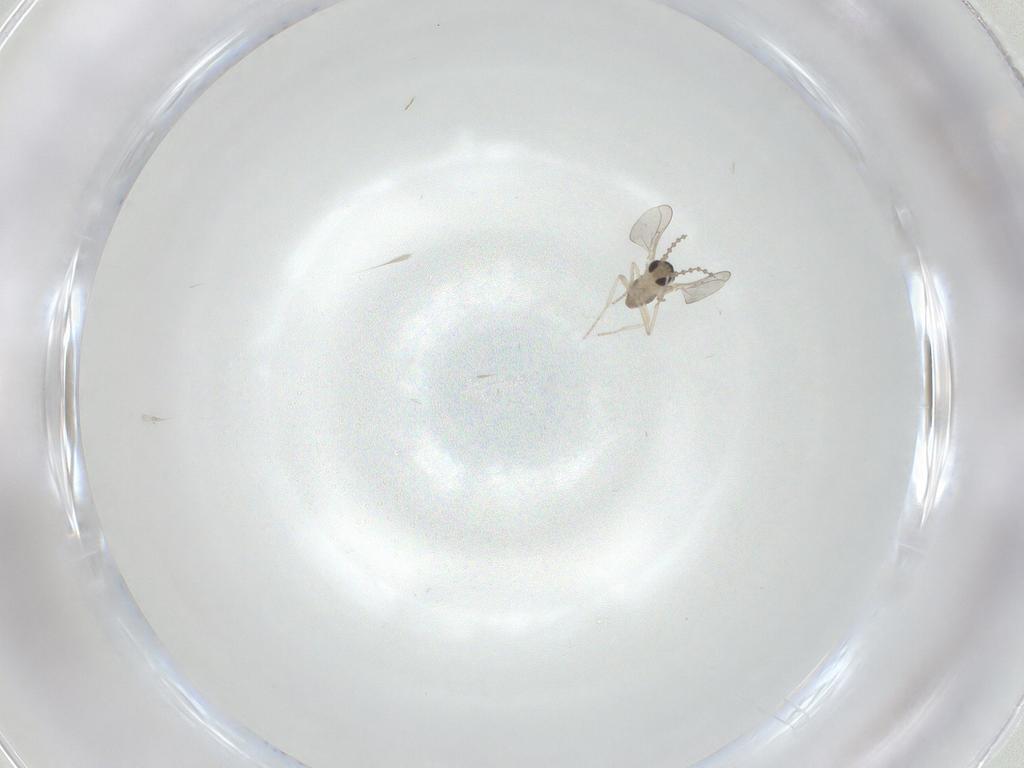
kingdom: Animalia
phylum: Arthropoda
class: Insecta
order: Diptera
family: Cecidomyiidae
